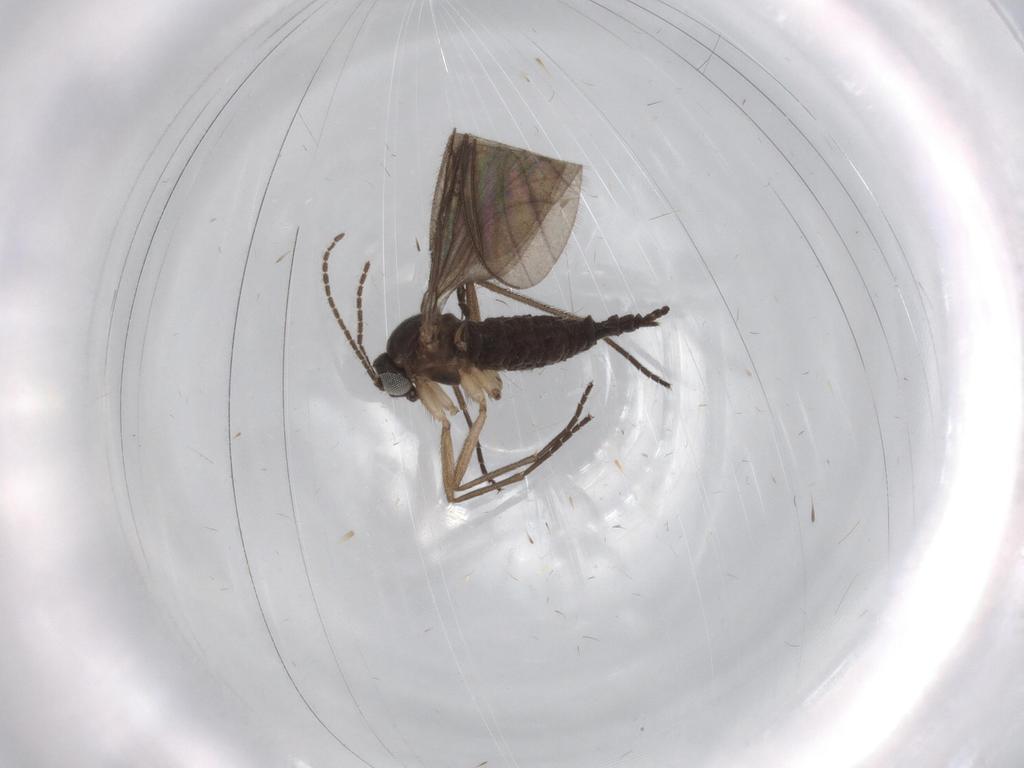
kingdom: Animalia
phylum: Arthropoda
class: Insecta
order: Diptera
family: Sciaridae
